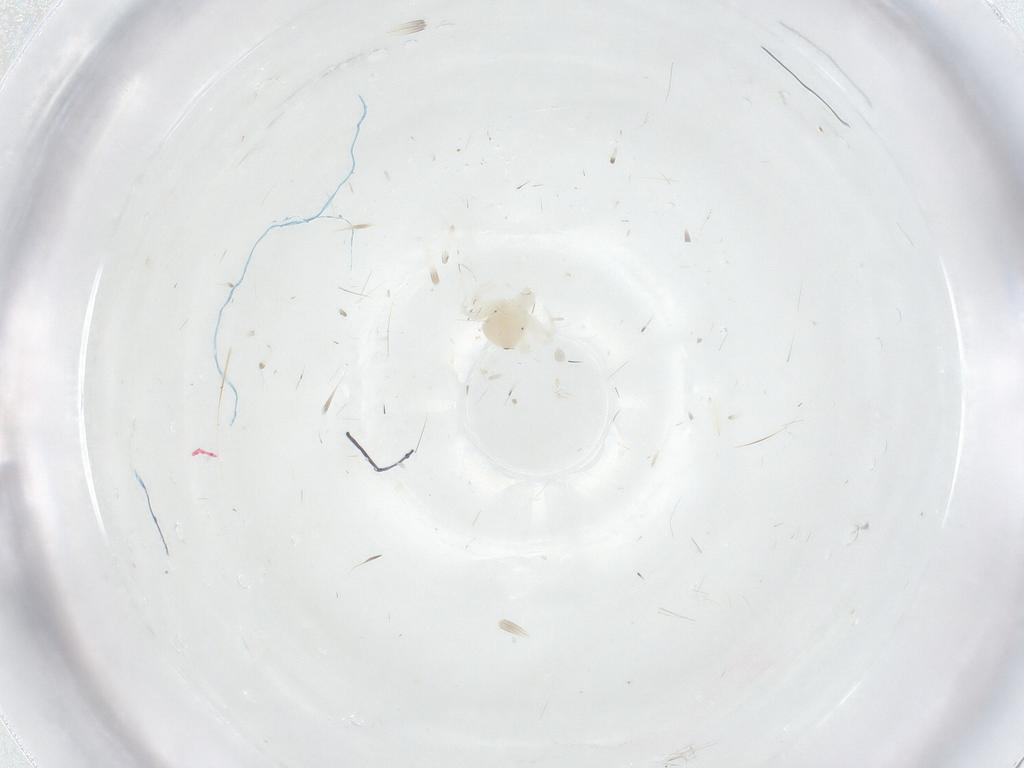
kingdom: Animalia
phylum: Arthropoda
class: Arachnida
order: Trombidiformes
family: Anystidae
